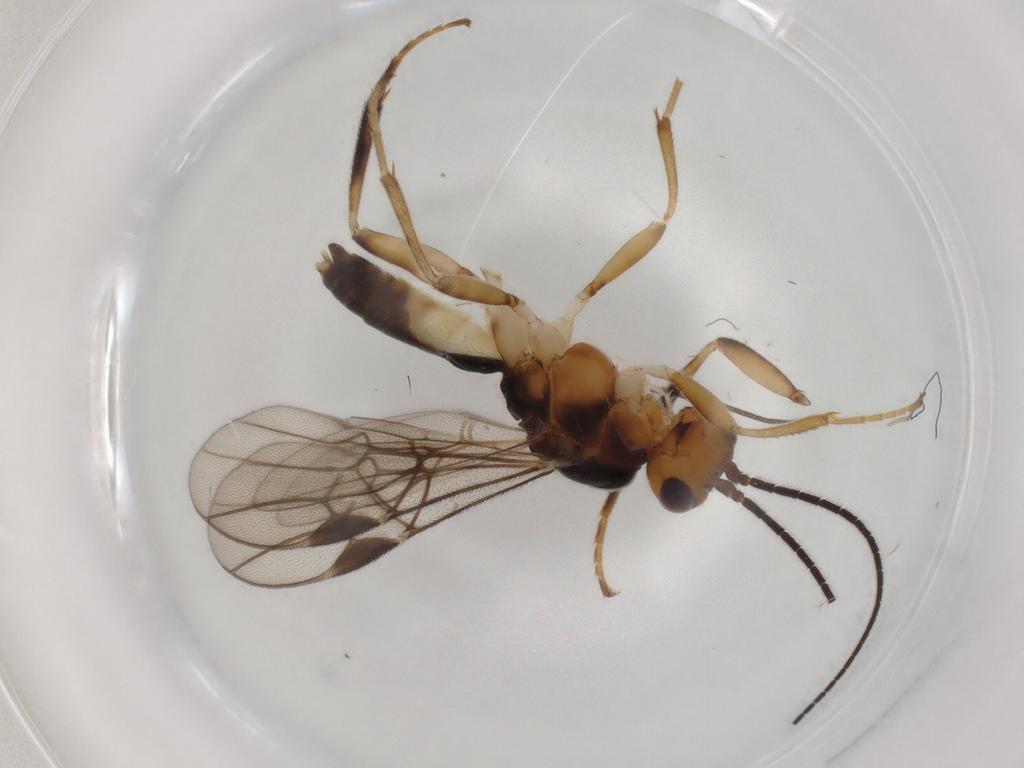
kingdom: Animalia
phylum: Arthropoda
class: Insecta
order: Hymenoptera
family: Braconidae
